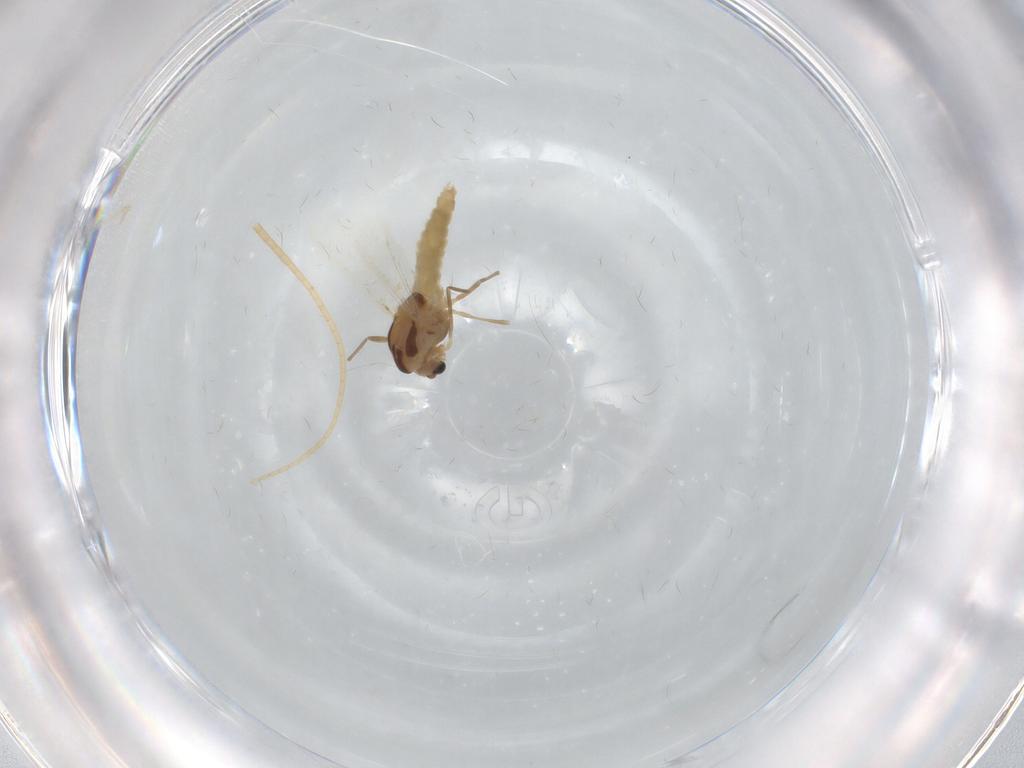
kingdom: Animalia
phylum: Arthropoda
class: Insecta
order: Diptera
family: Chironomidae
